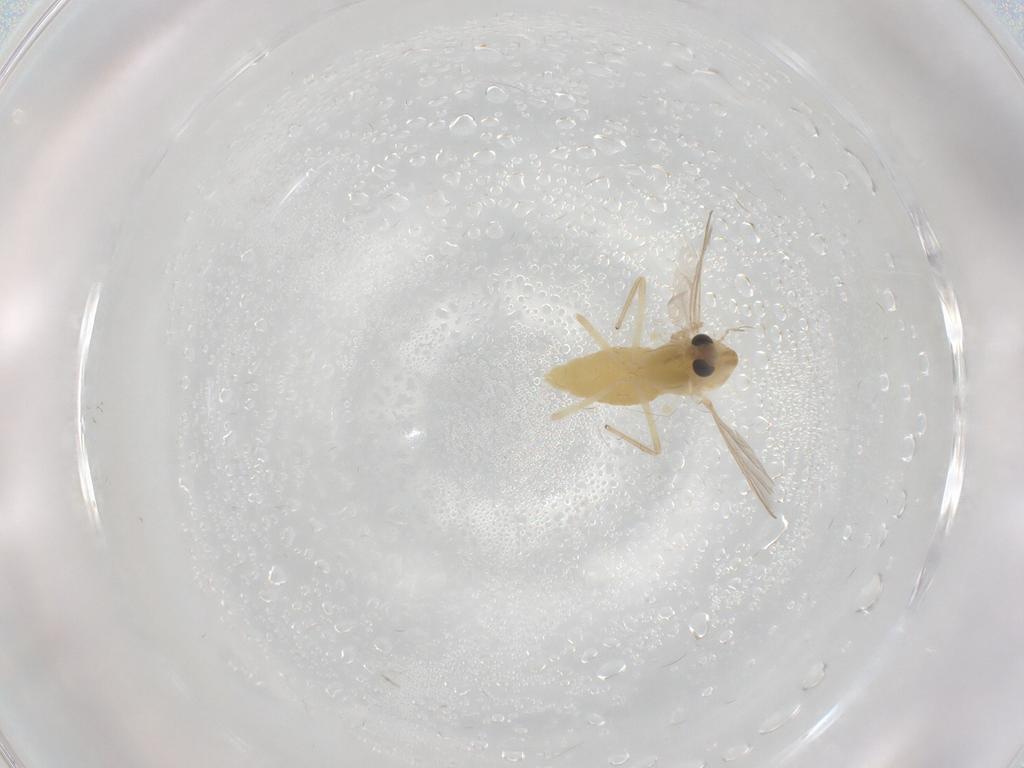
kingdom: Animalia
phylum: Arthropoda
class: Insecta
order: Diptera
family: Chironomidae
